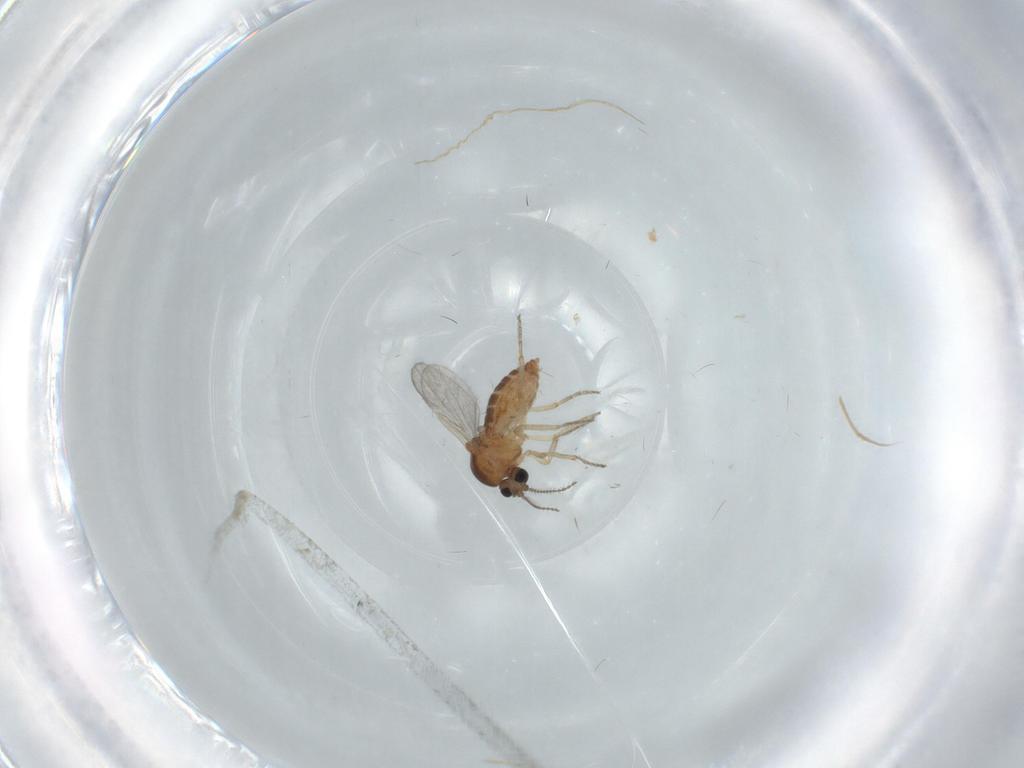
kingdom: Animalia
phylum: Arthropoda
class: Insecta
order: Diptera
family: Ceratopogonidae
